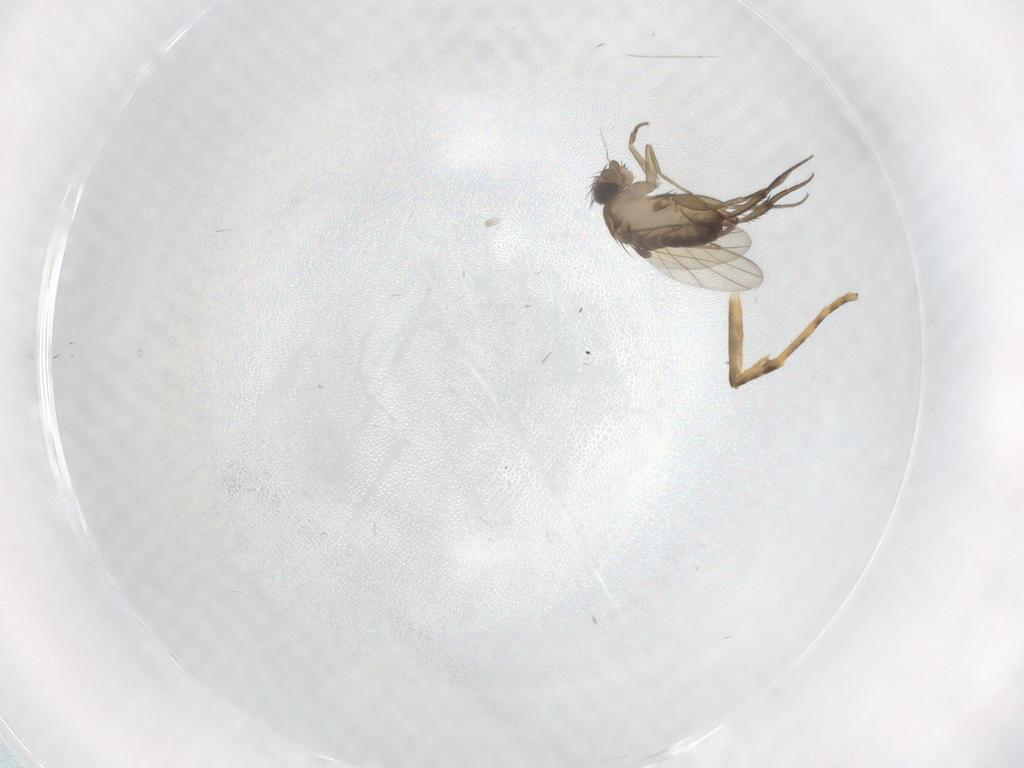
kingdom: Animalia
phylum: Arthropoda
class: Insecta
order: Diptera
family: Phoridae
